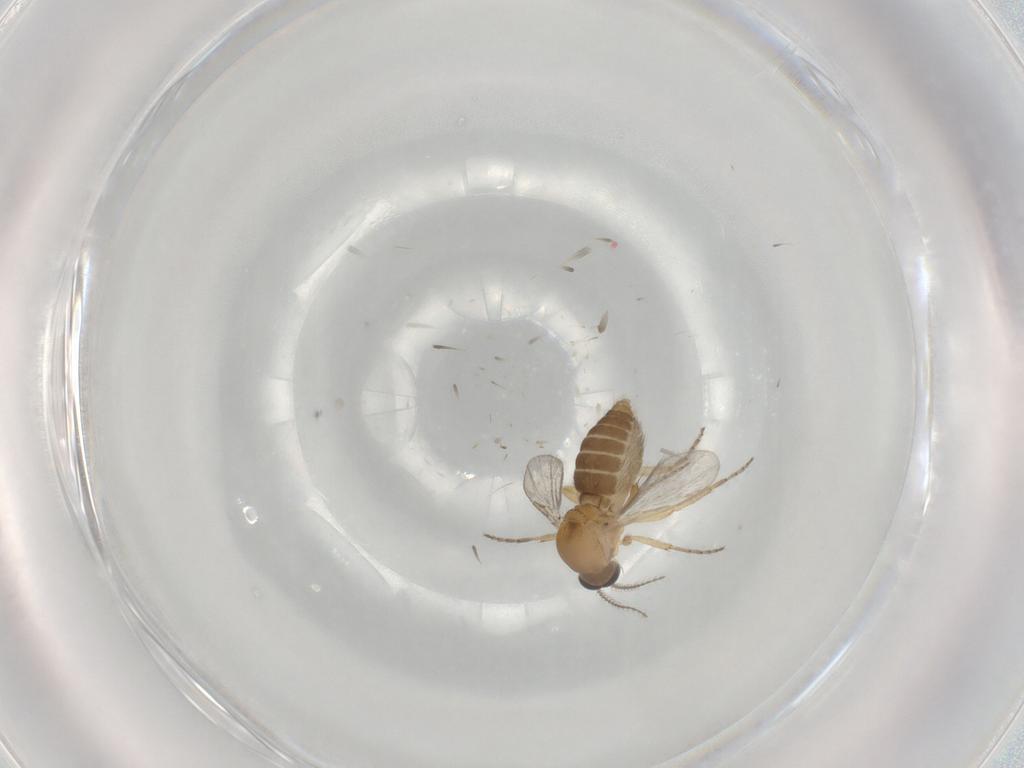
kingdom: Animalia
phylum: Arthropoda
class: Insecta
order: Diptera
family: Ceratopogonidae
